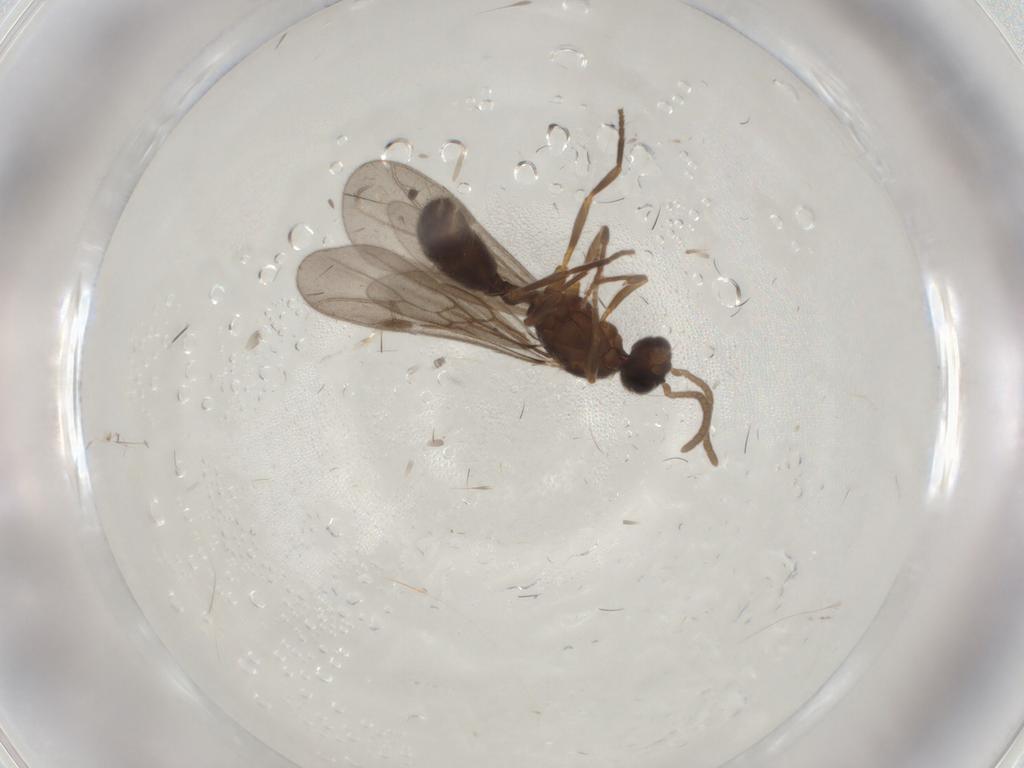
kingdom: Animalia
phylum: Arthropoda
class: Insecta
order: Hymenoptera
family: Formicidae
